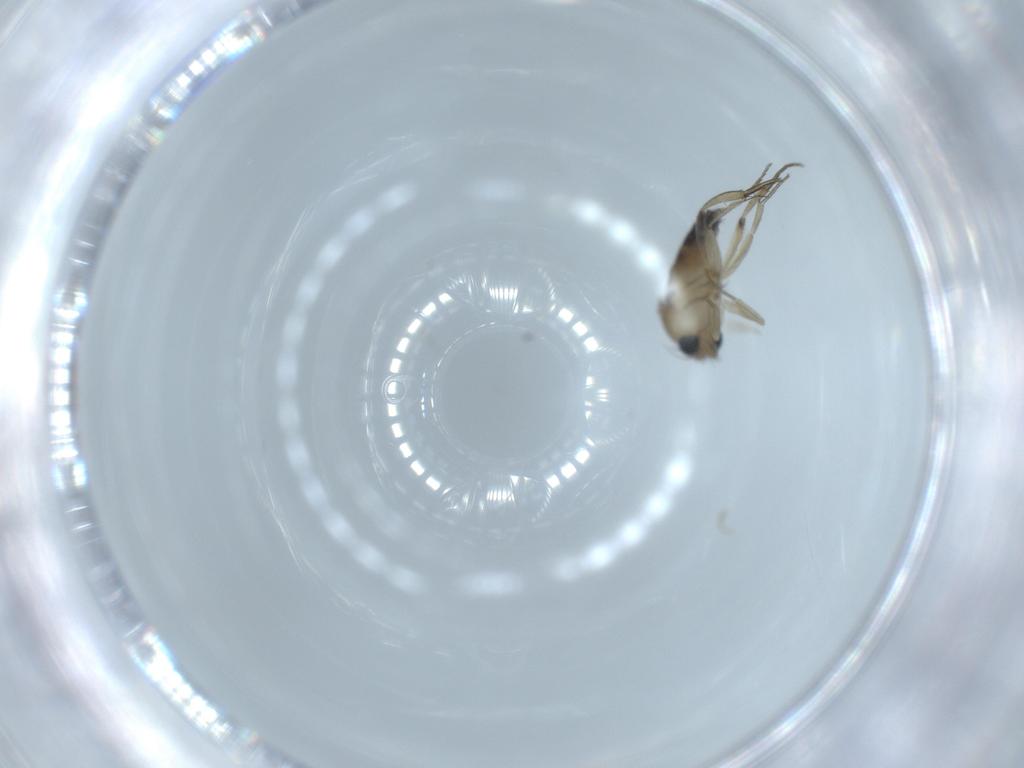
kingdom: Animalia
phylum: Arthropoda
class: Insecta
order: Diptera
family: Phoridae
